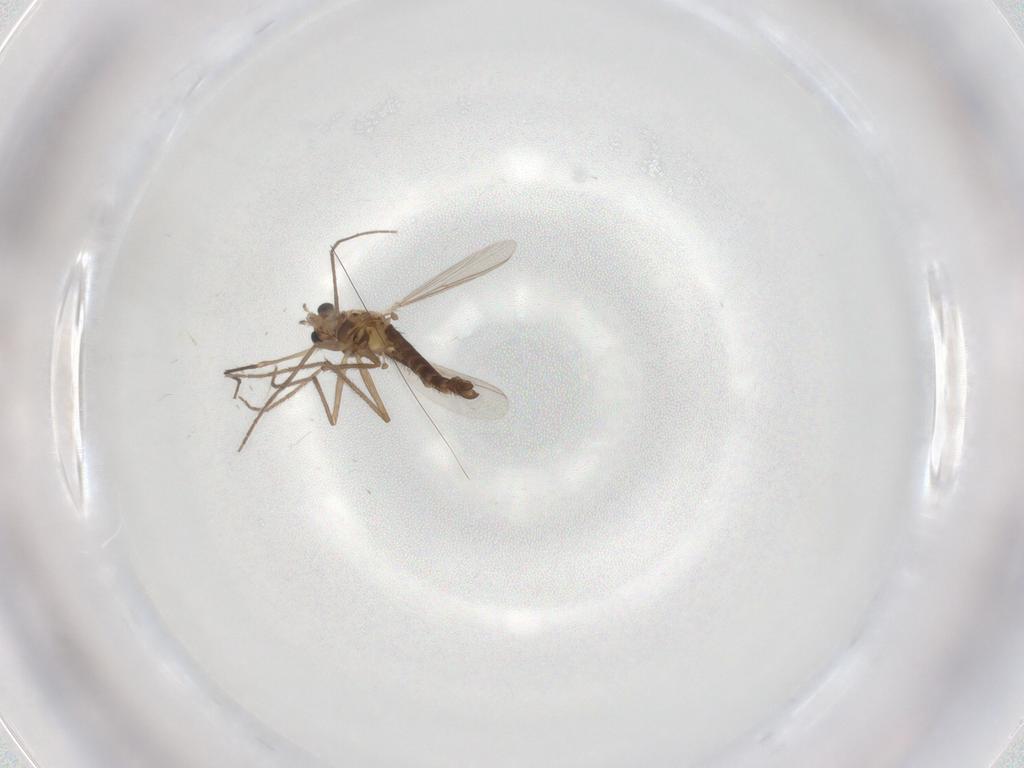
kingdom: Animalia
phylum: Arthropoda
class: Insecta
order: Diptera
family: Chironomidae
